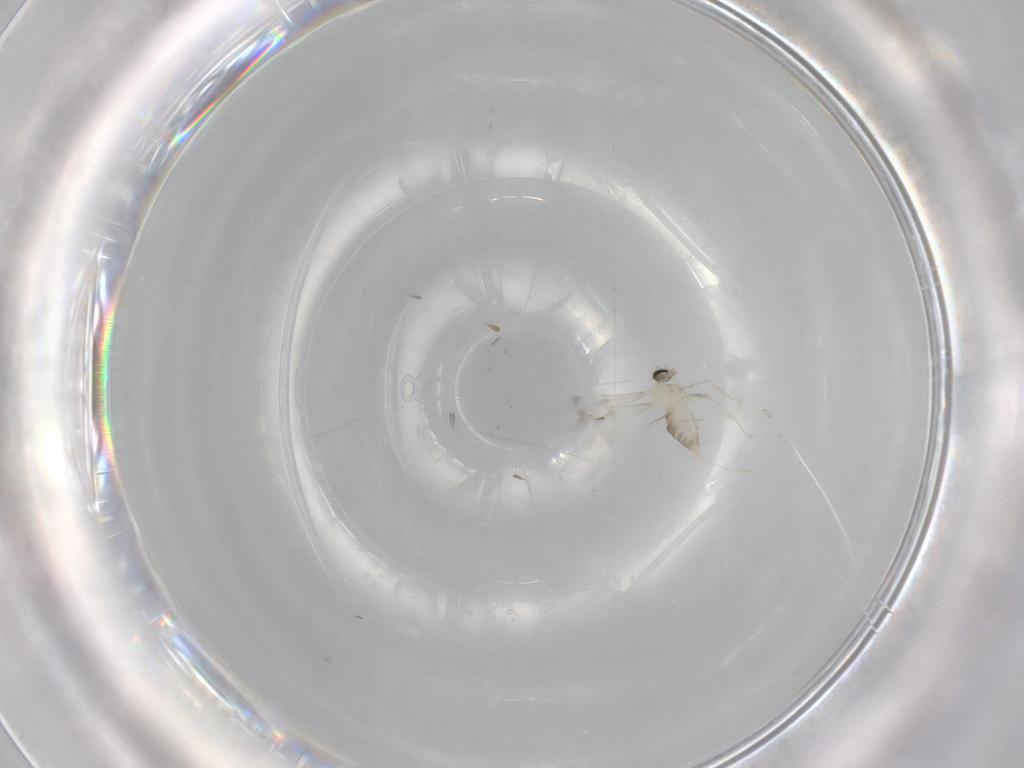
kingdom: Animalia
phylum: Arthropoda
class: Insecta
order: Diptera
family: Cecidomyiidae
